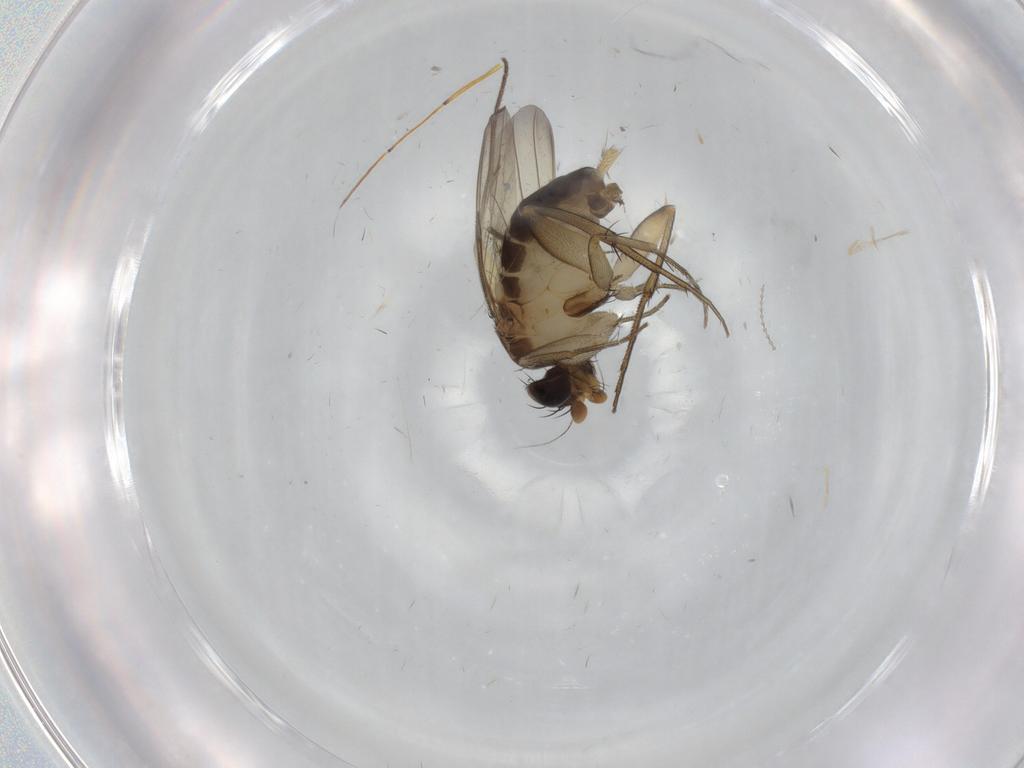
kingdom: Animalia
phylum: Arthropoda
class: Insecta
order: Diptera
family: Phoridae
